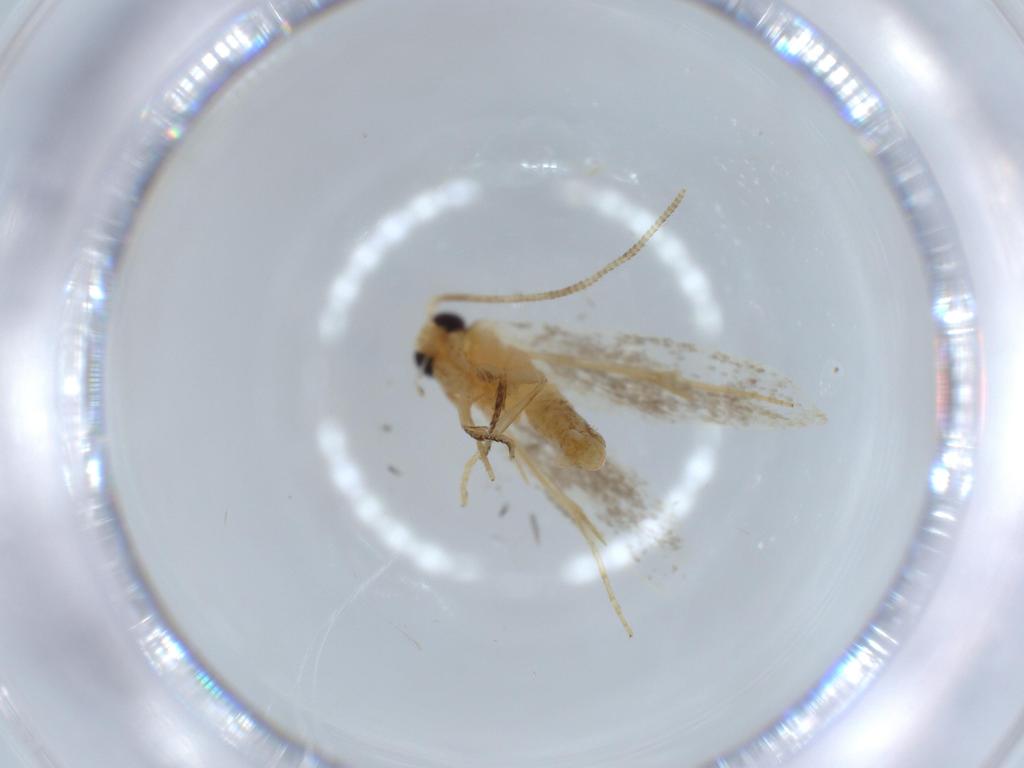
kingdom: Animalia
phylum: Arthropoda
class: Insecta
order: Lepidoptera
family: Tineidae
